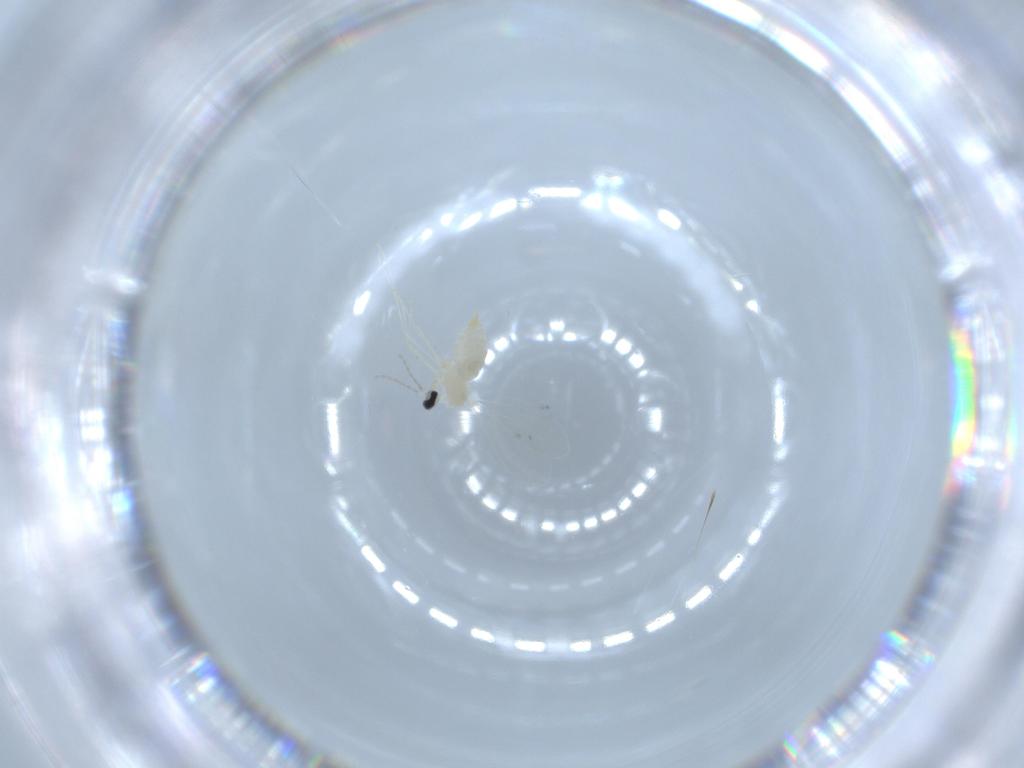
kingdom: Animalia
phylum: Arthropoda
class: Insecta
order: Diptera
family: Cecidomyiidae
